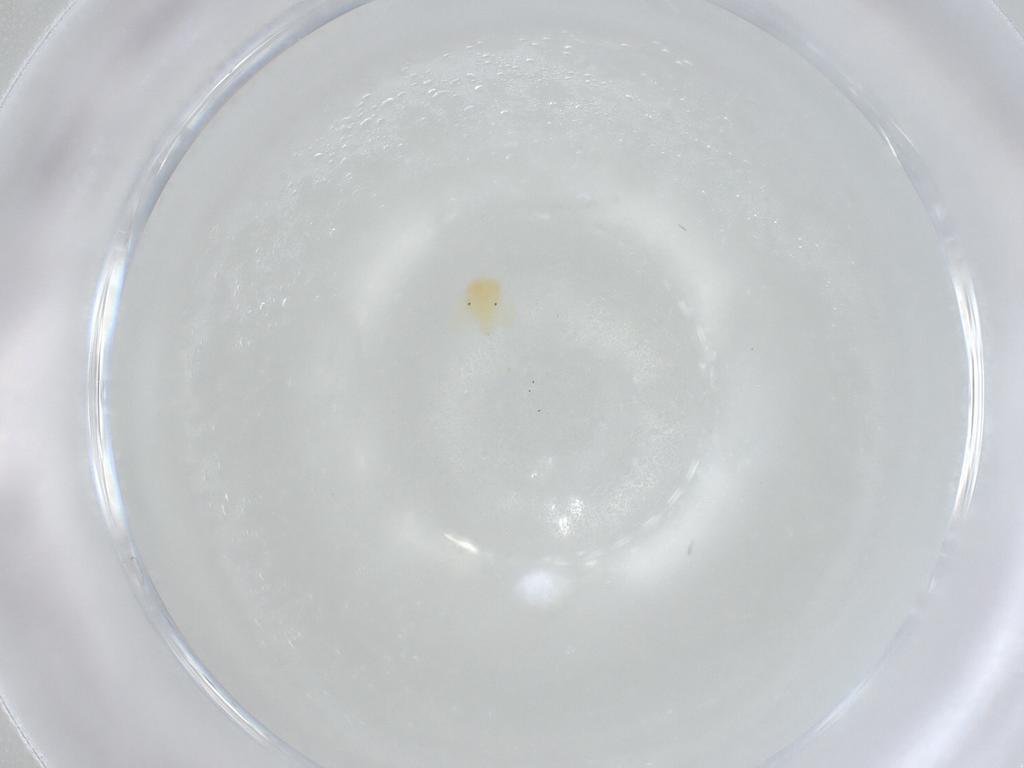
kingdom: Animalia
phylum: Arthropoda
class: Arachnida
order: Trombidiformes
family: Anystidae
